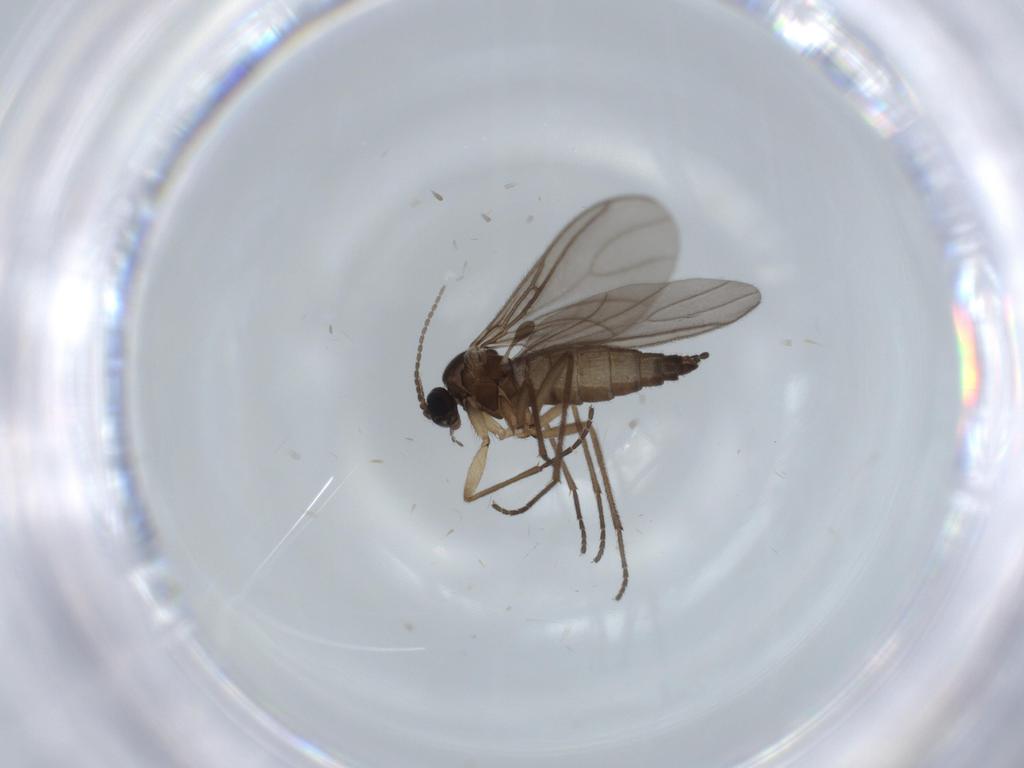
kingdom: Animalia
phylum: Arthropoda
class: Insecta
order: Diptera
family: Sciaridae
